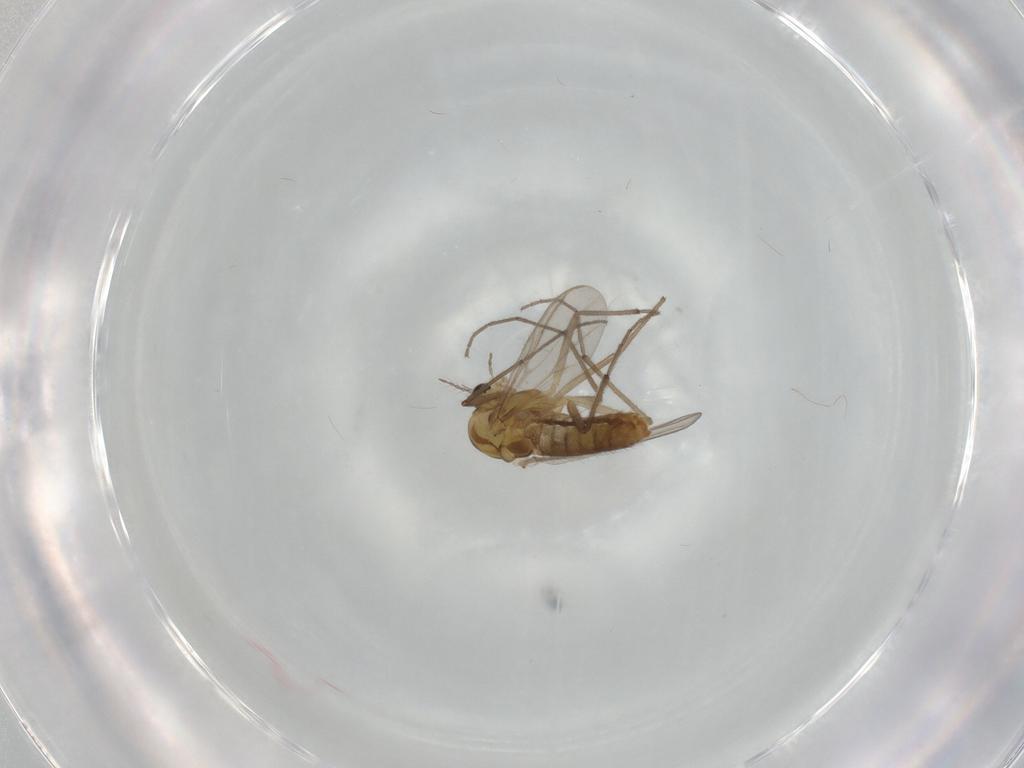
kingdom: Animalia
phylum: Arthropoda
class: Insecta
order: Diptera
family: Chironomidae
